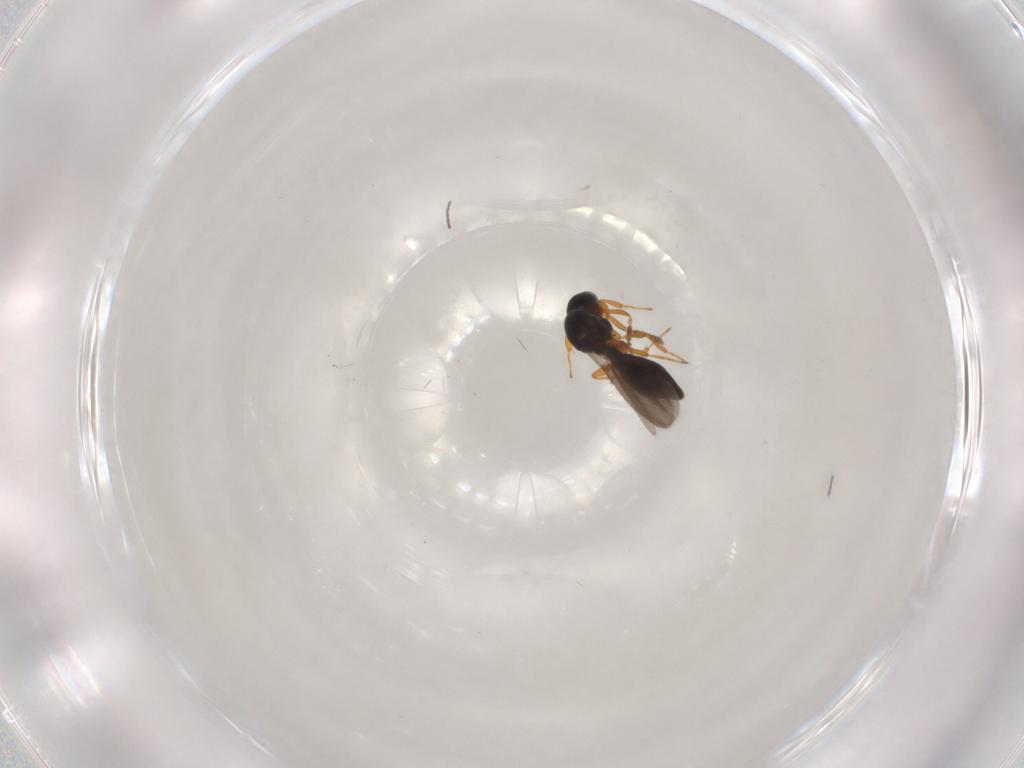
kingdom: Animalia
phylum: Arthropoda
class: Insecta
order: Hymenoptera
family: Platygastridae
